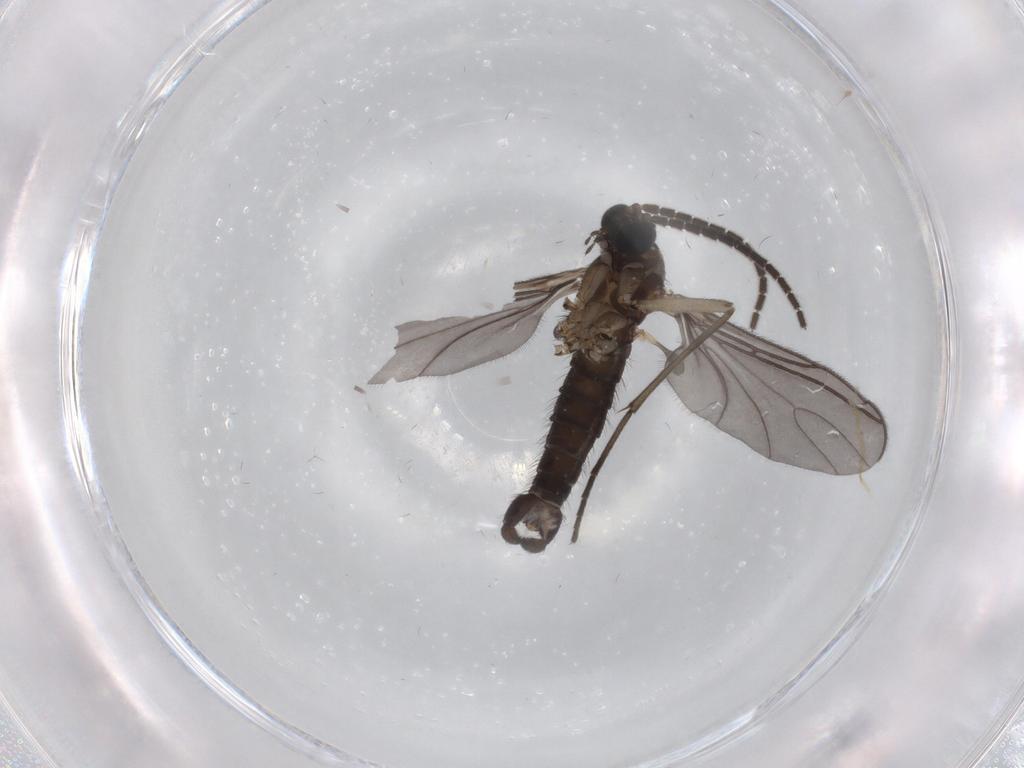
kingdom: Animalia
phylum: Arthropoda
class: Insecta
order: Diptera
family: Sciaridae
